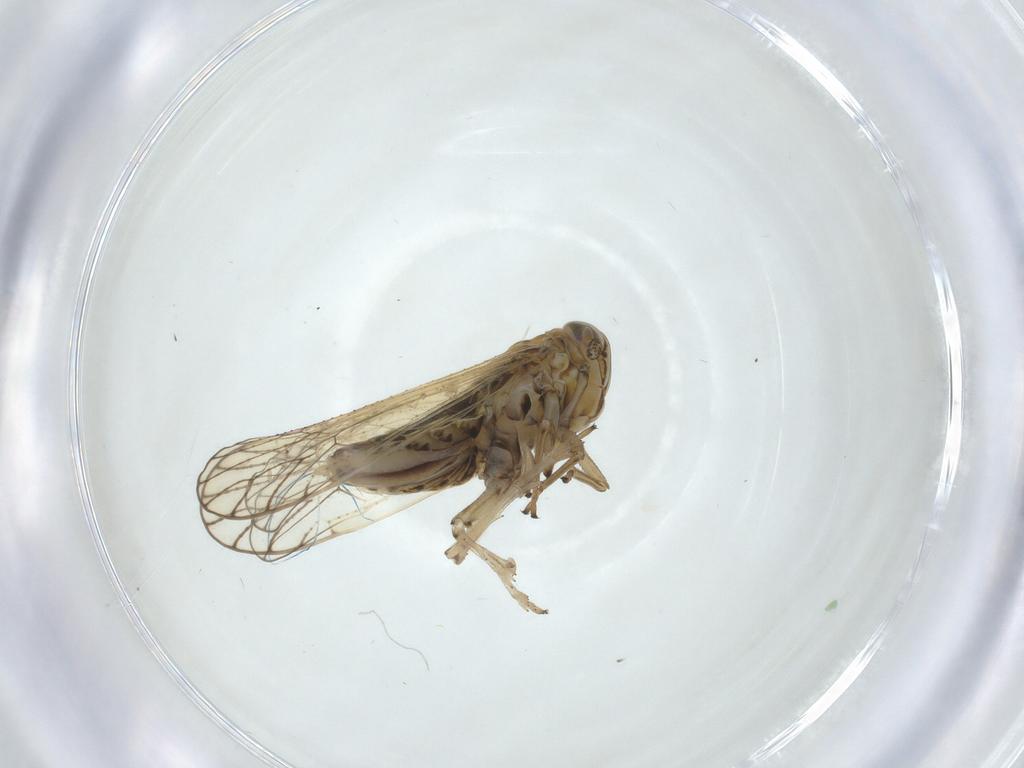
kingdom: Animalia
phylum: Arthropoda
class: Insecta
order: Hemiptera
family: Delphacidae
